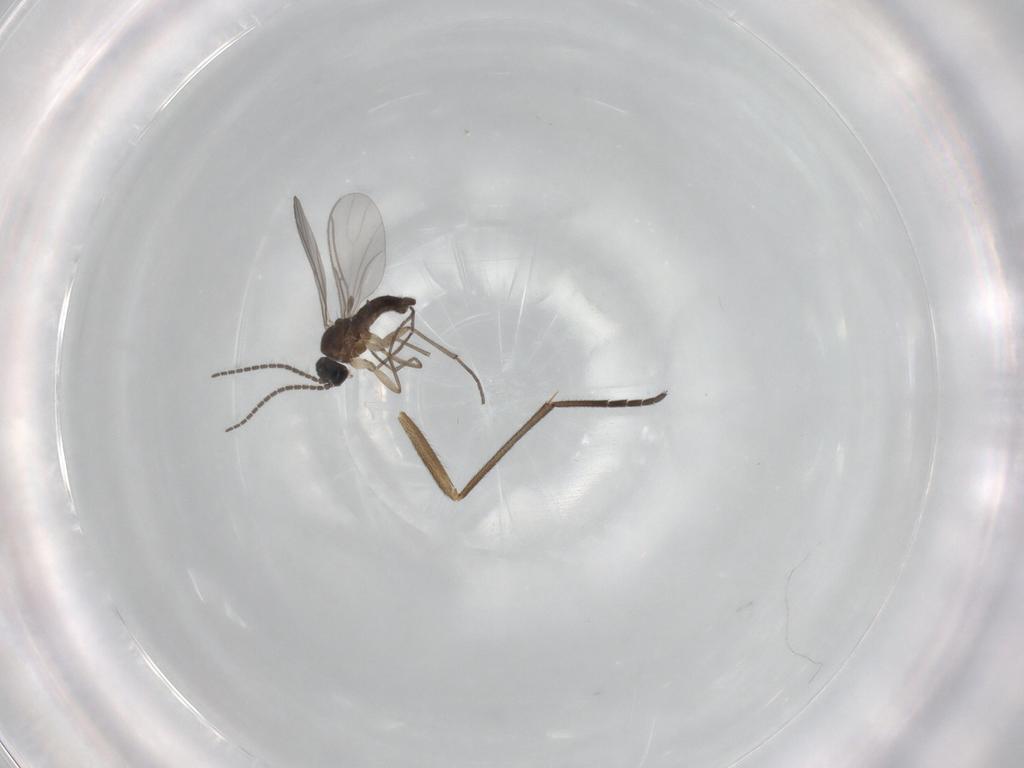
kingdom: Animalia
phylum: Arthropoda
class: Insecta
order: Diptera
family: Sciaridae
